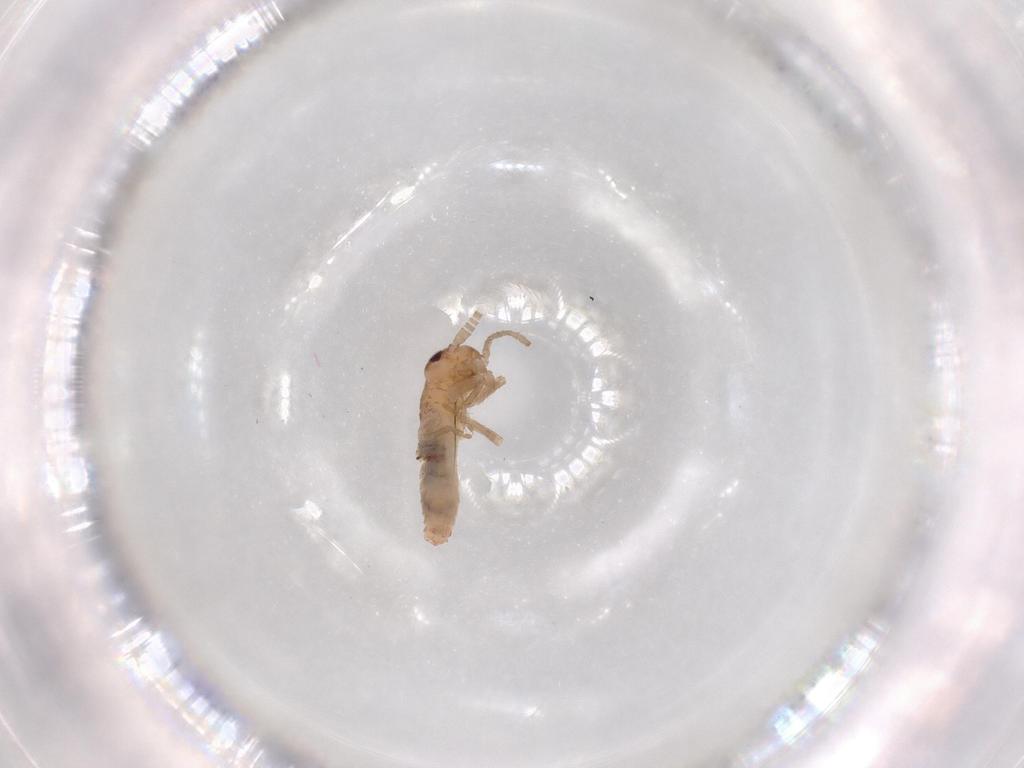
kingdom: Animalia
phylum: Arthropoda
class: Insecta
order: Orthoptera
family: Mogoplistidae
